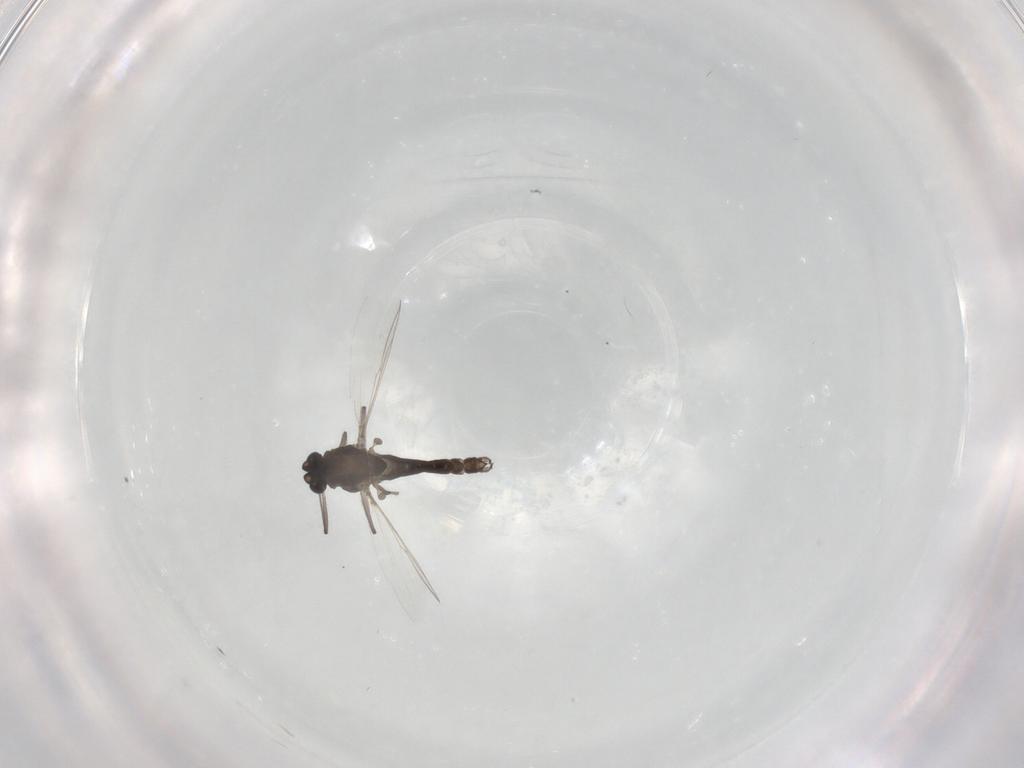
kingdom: Animalia
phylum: Arthropoda
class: Insecta
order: Diptera
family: Chironomidae
